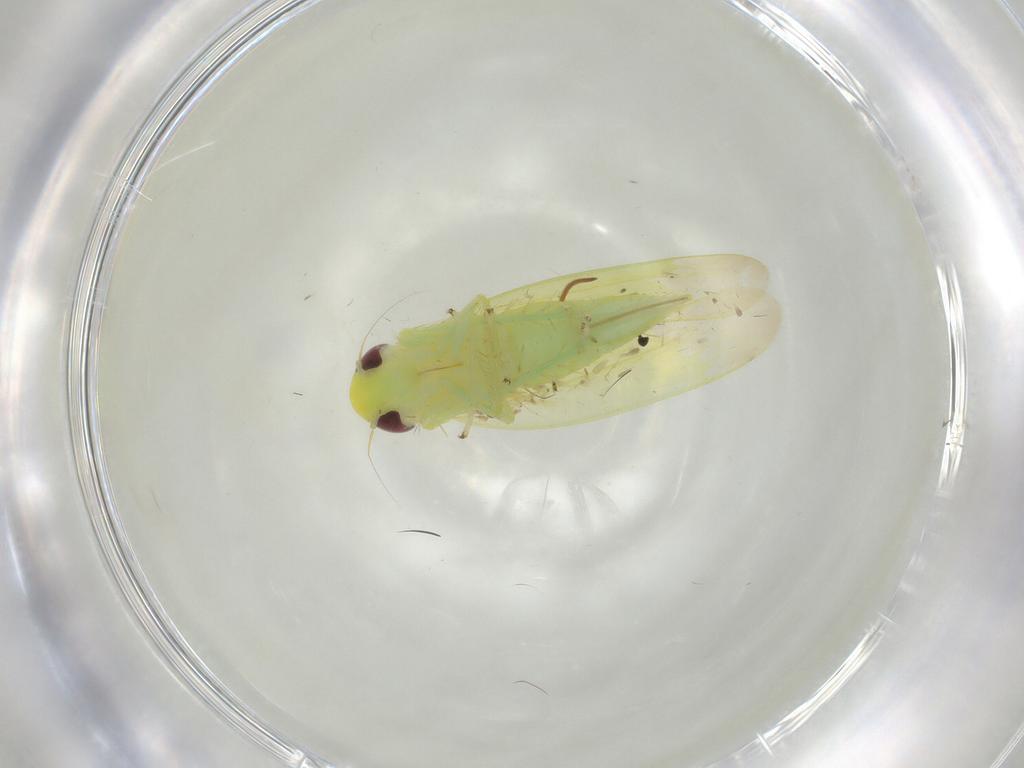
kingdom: Animalia
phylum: Arthropoda
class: Insecta
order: Hemiptera
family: Cicadellidae
